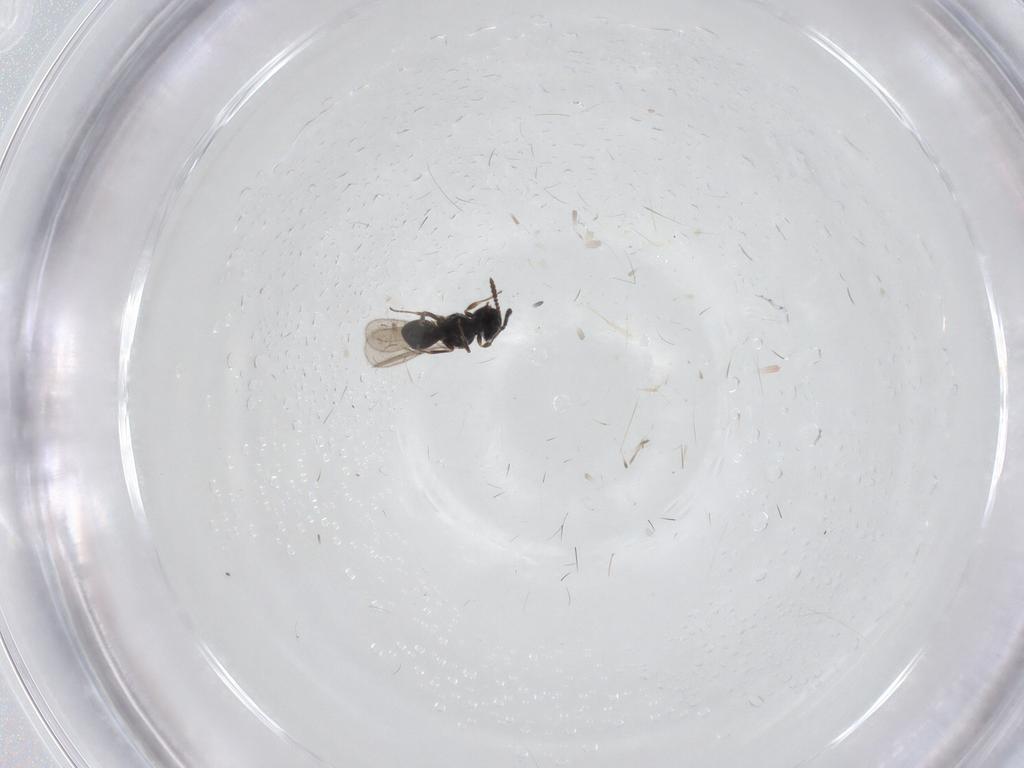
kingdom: Animalia
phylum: Arthropoda
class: Insecta
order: Hymenoptera
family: Scelionidae
